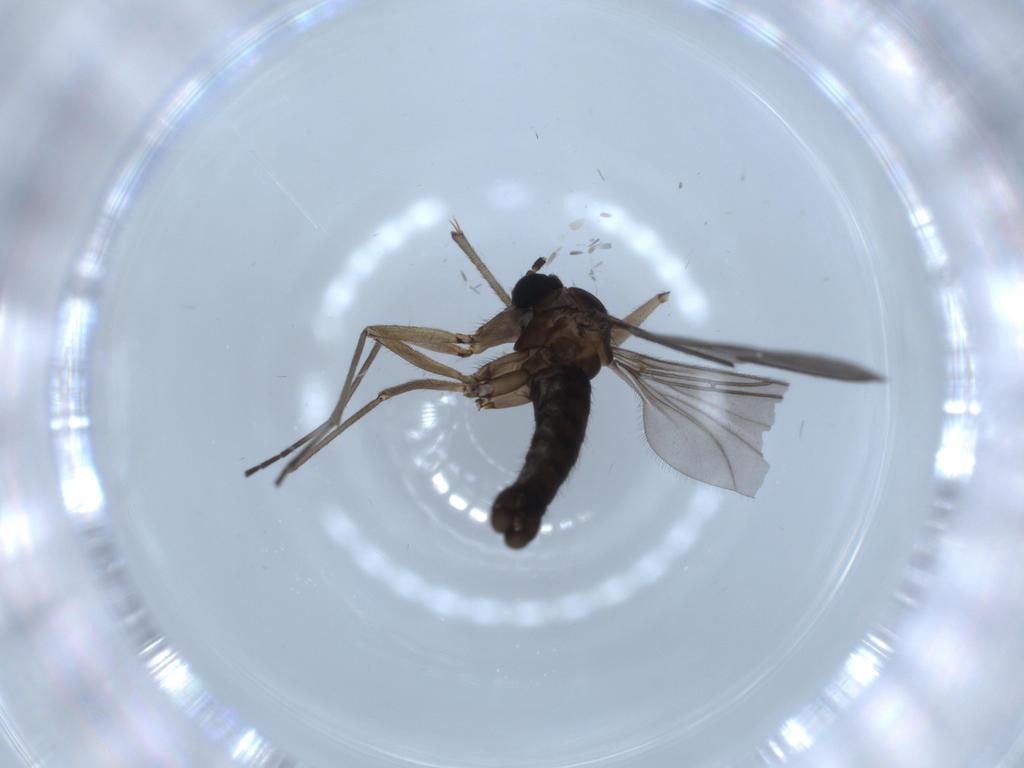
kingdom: Animalia
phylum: Arthropoda
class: Insecta
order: Diptera
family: Sciaridae
